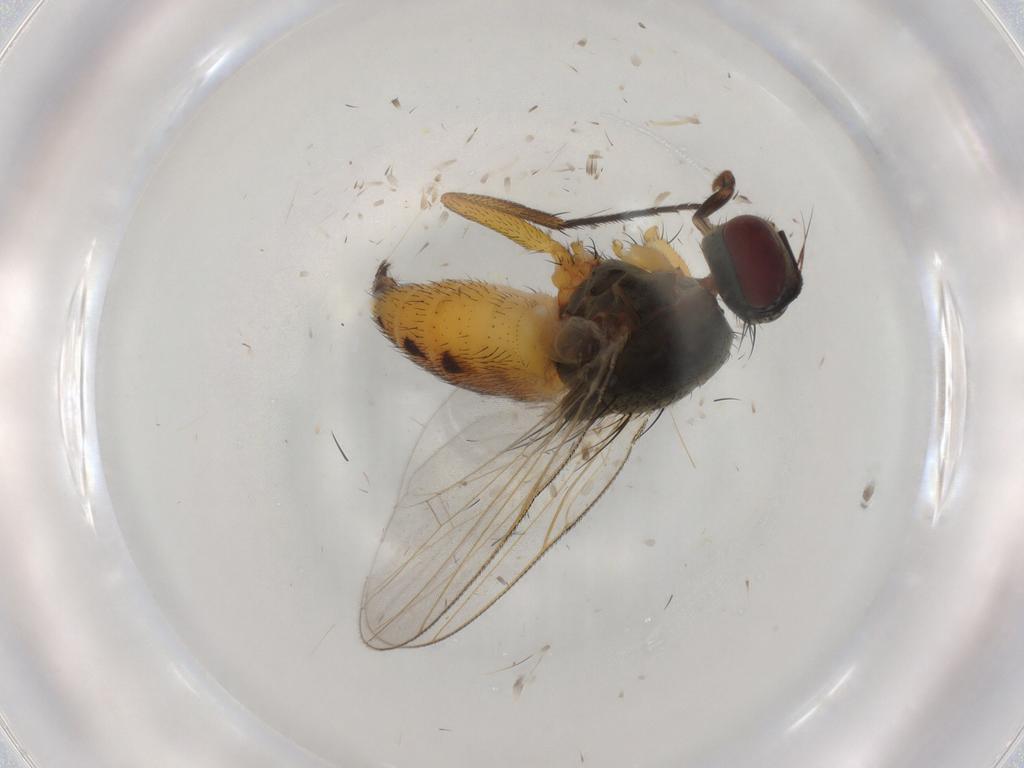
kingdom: Animalia
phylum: Arthropoda
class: Insecta
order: Diptera
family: Muscidae
